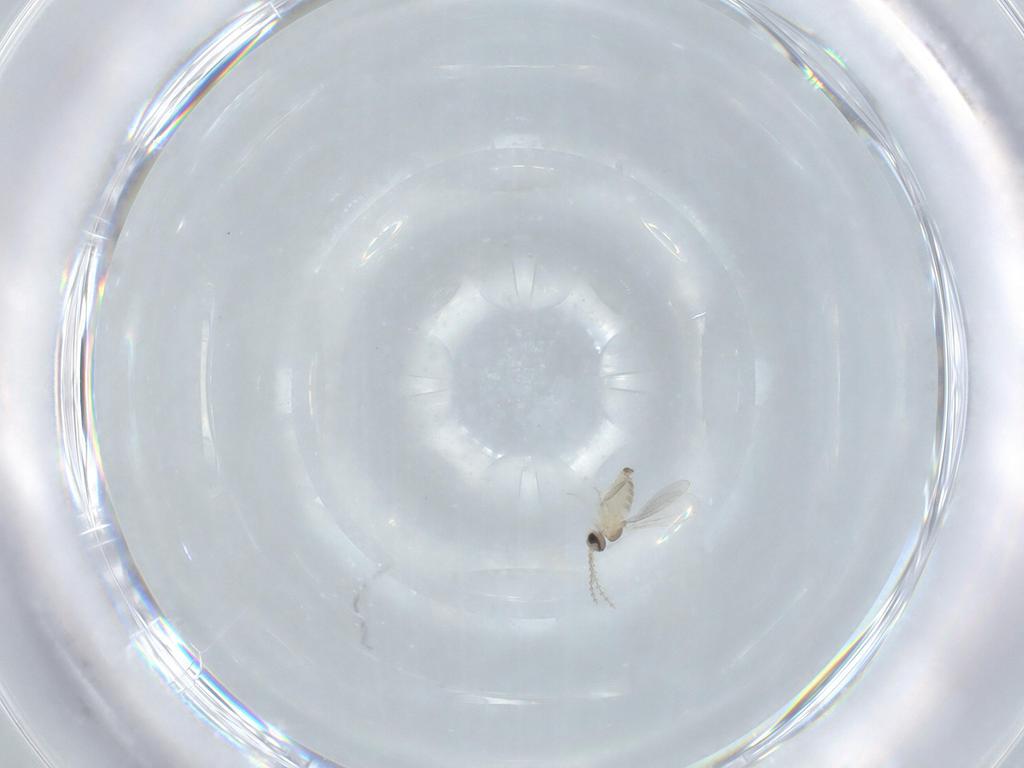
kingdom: Animalia
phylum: Arthropoda
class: Insecta
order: Diptera
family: Cecidomyiidae
